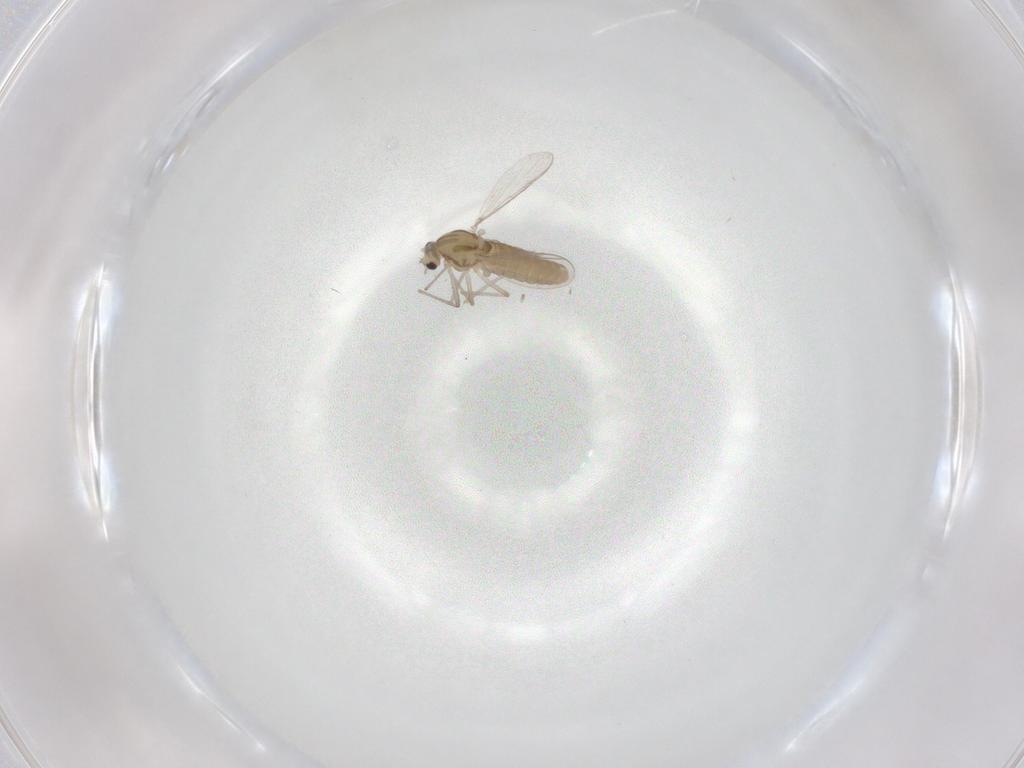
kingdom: Animalia
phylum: Arthropoda
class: Insecta
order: Diptera
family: Chironomidae
